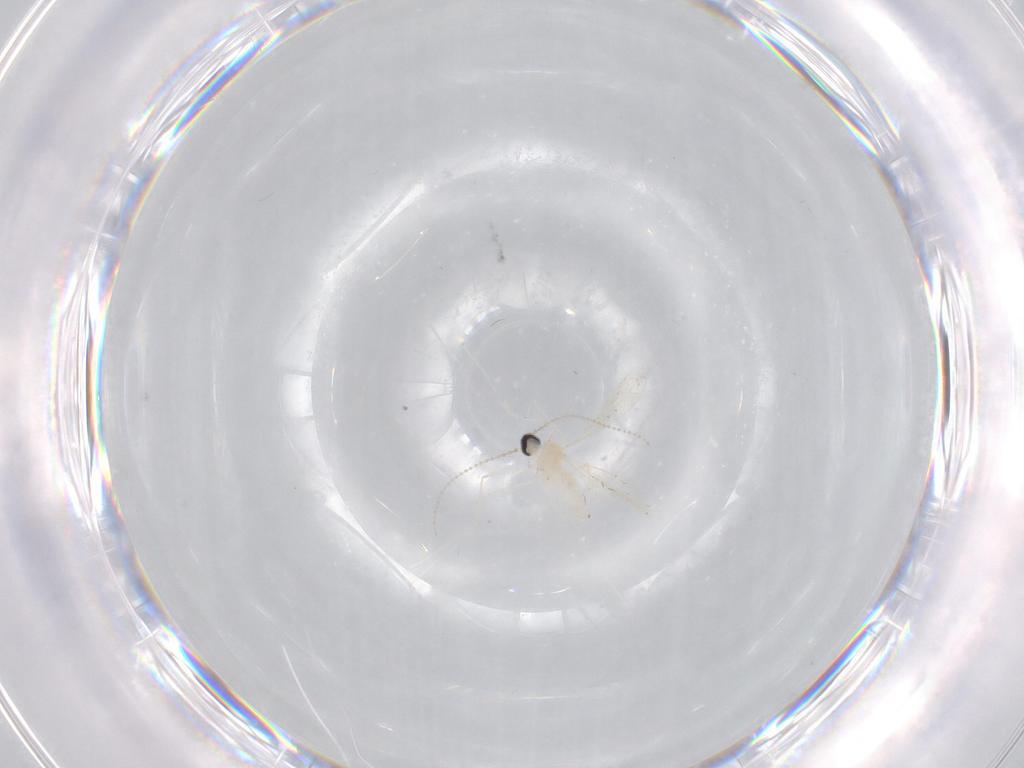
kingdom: Animalia
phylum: Arthropoda
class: Insecta
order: Diptera
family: Cecidomyiidae
